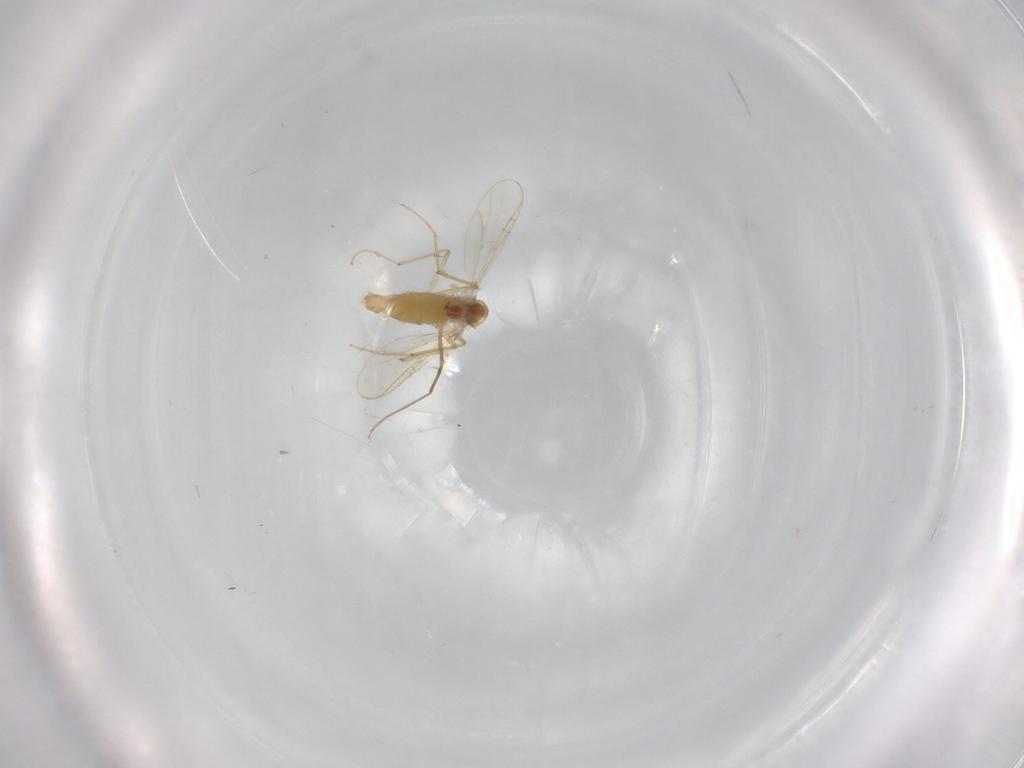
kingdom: Animalia
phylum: Arthropoda
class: Insecta
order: Diptera
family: Chironomidae
